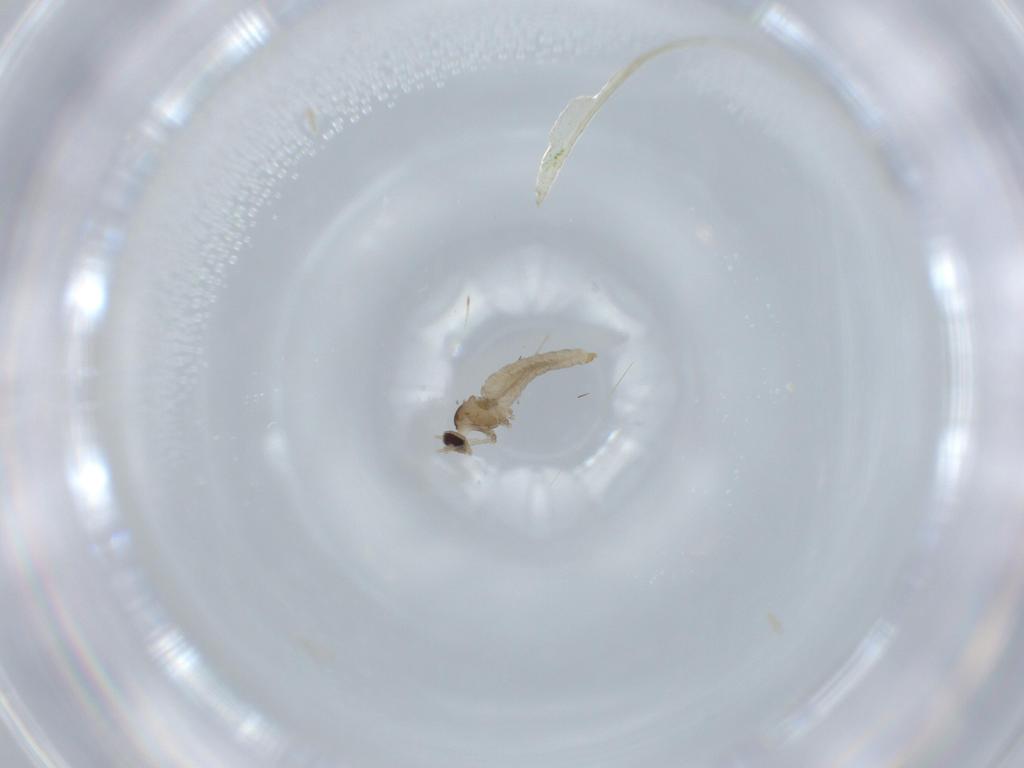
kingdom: Animalia
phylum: Arthropoda
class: Insecta
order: Diptera
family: Cecidomyiidae
